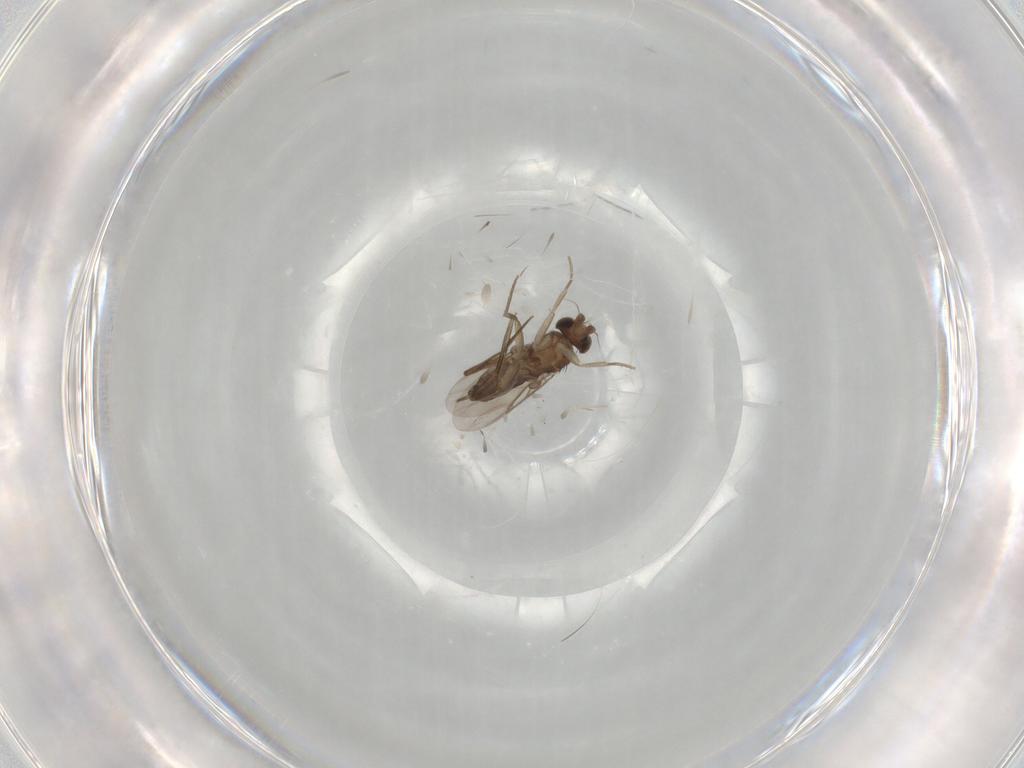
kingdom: Animalia
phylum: Arthropoda
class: Insecta
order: Diptera
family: Phoridae
